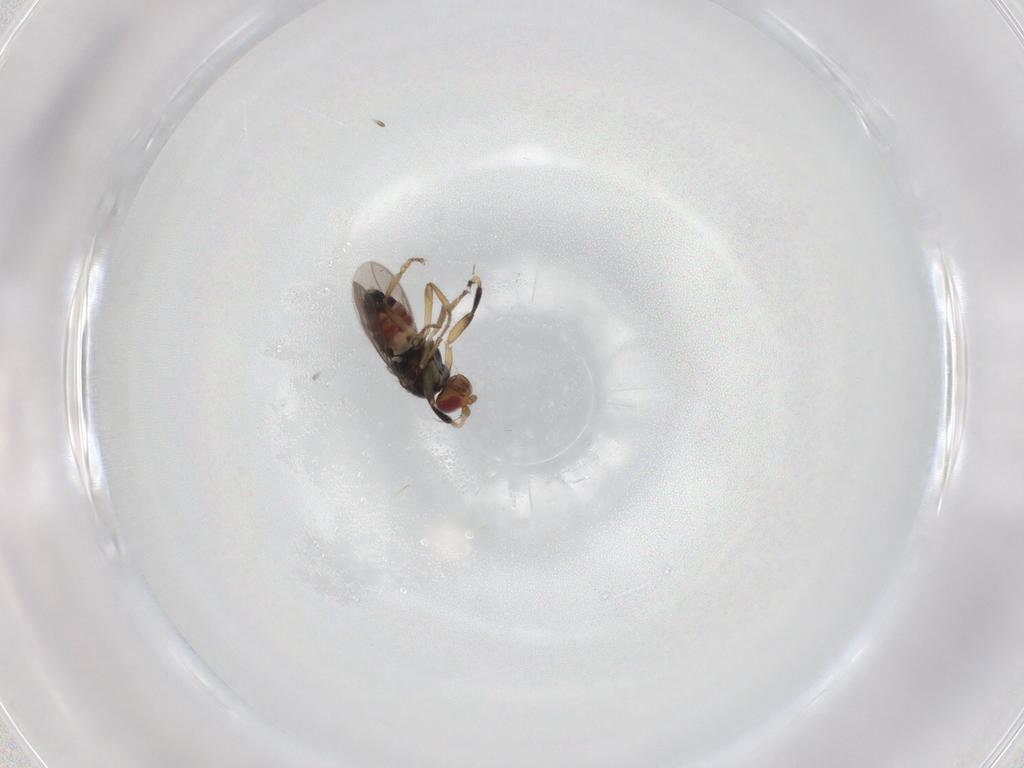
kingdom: Animalia
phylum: Arthropoda
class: Insecta
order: Diptera
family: Sphaeroceridae
